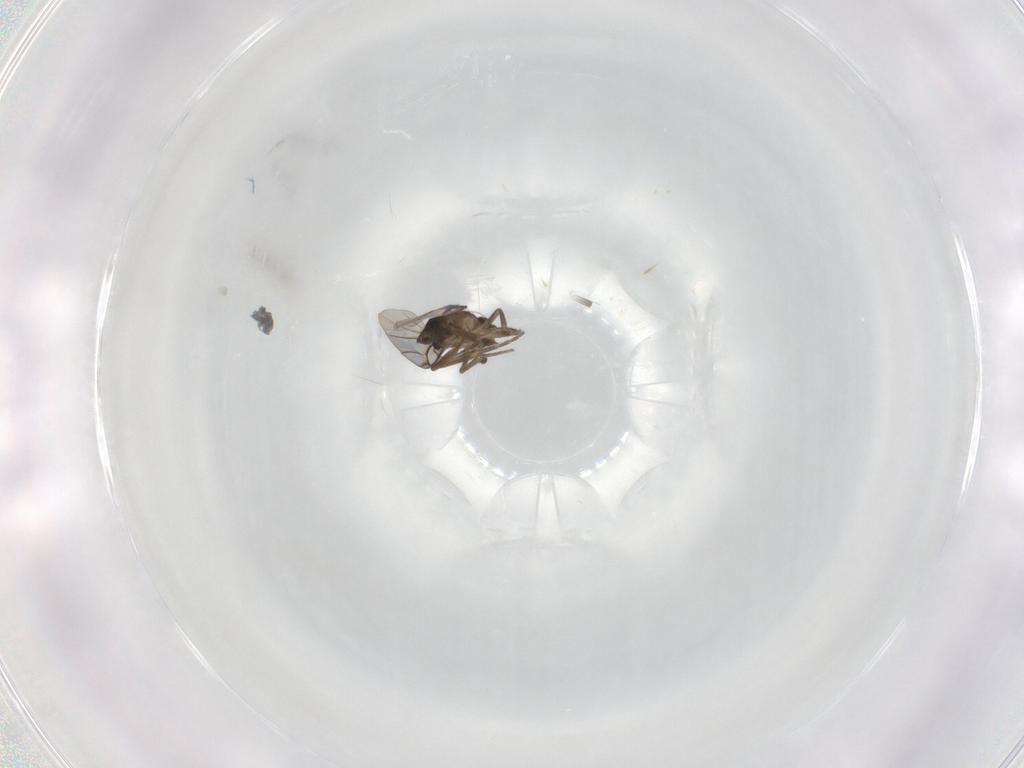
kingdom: Animalia
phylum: Arthropoda
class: Insecta
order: Diptera
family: Phoridae
